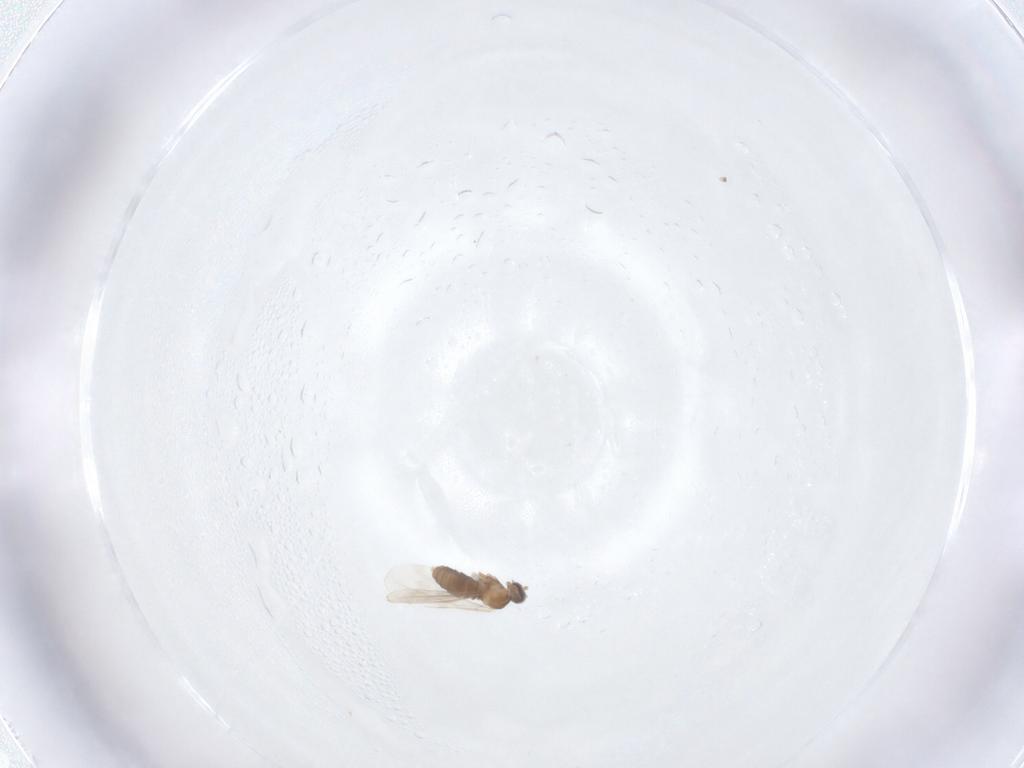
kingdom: Animalia
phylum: Arthropoda
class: Insecta
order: Diptera
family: Cecidomyiidae
